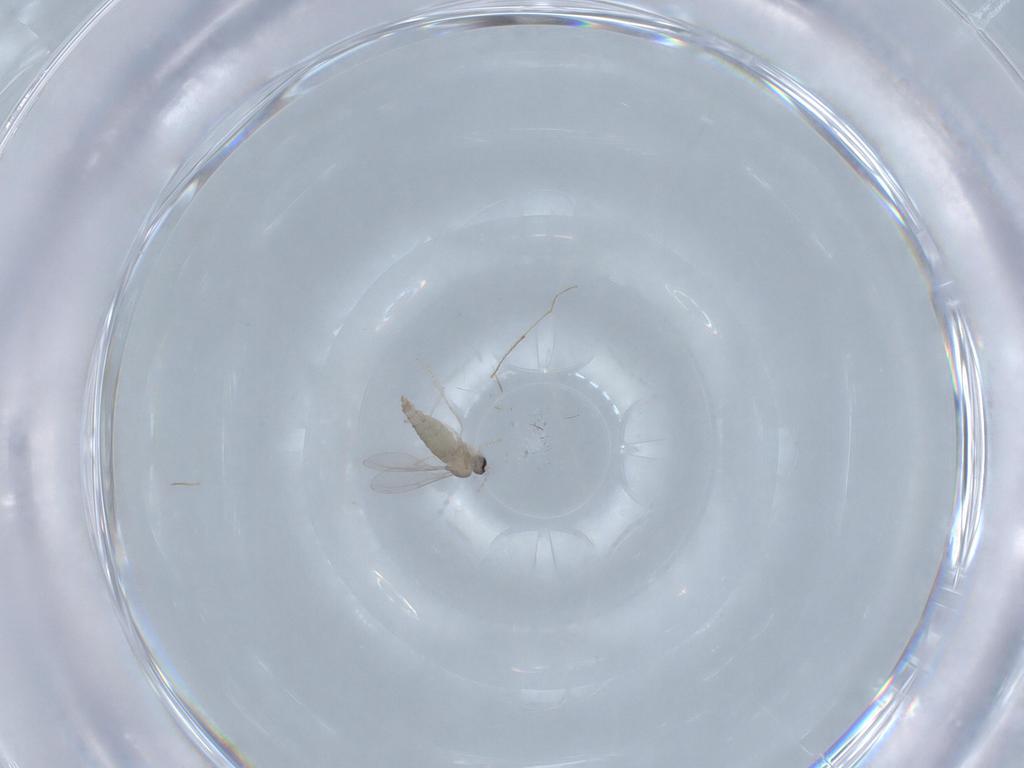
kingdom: Animalia
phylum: Arthropoda
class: Insecta
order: Diptera
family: Cecidomyiidae
